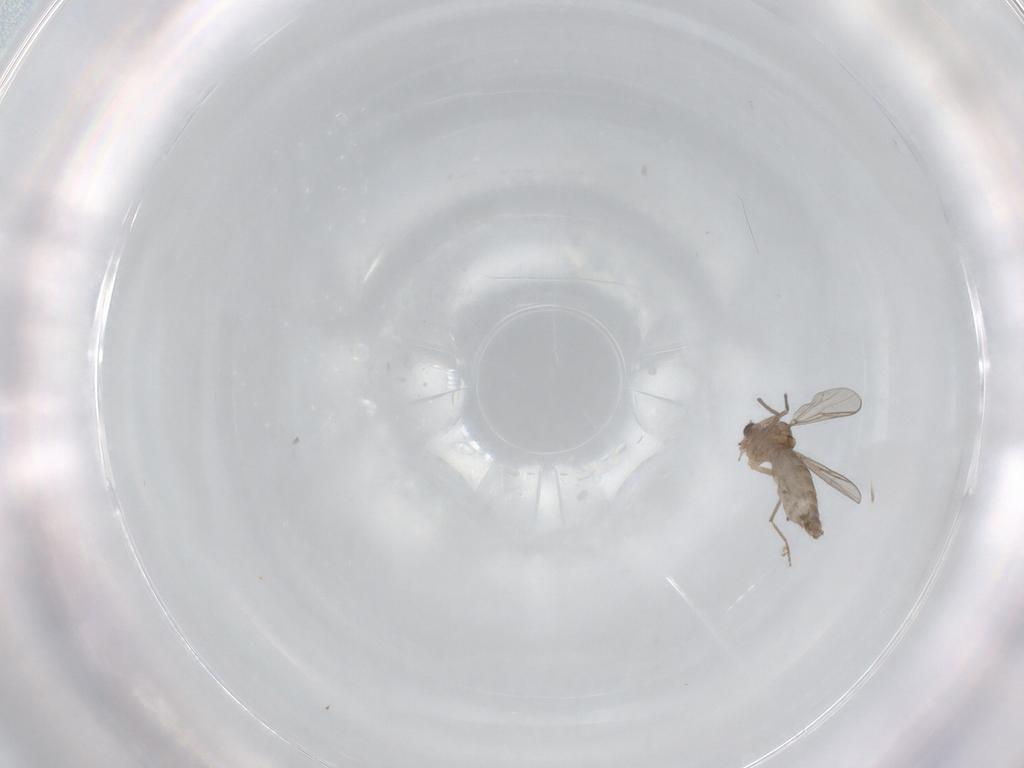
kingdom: Animalia
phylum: Arthropoda
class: Insecta
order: Diptera
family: Chironomidae
